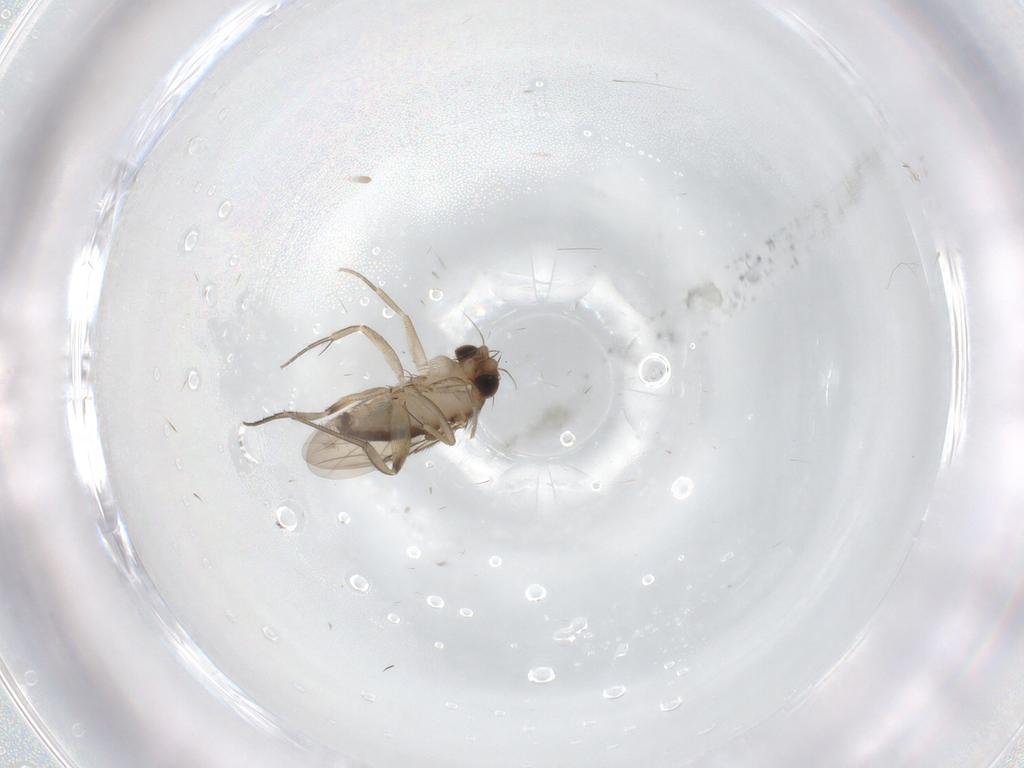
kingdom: Animalia
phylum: Arthropoda
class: Insecta
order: Diptera
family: Phoridae
